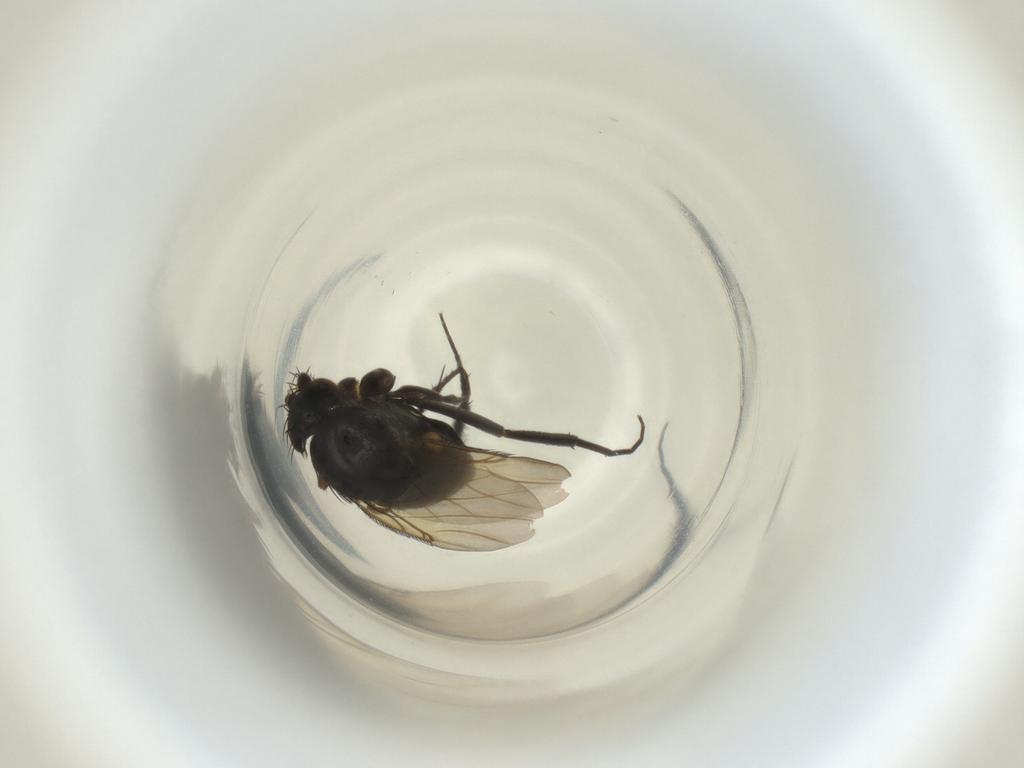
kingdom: Animalia
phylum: Arthropoda
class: Insecta
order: Diptera
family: Phoridae
